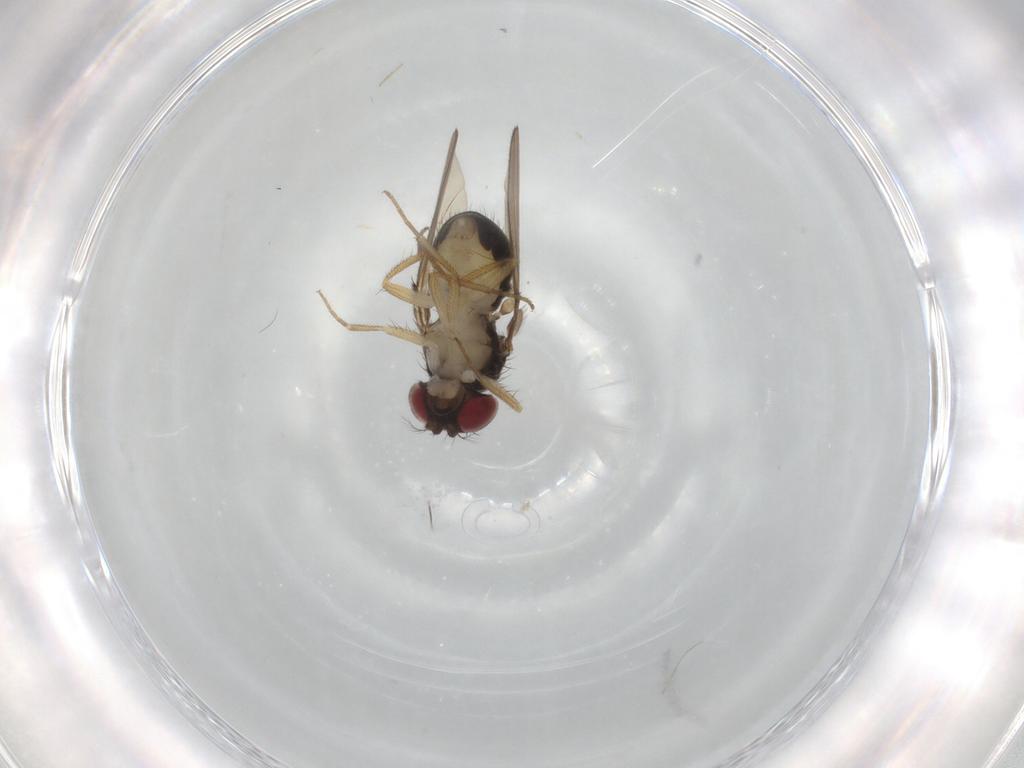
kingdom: Animalia
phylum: Arthropoda
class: Insecta
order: Diptera
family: Drosophilidae
